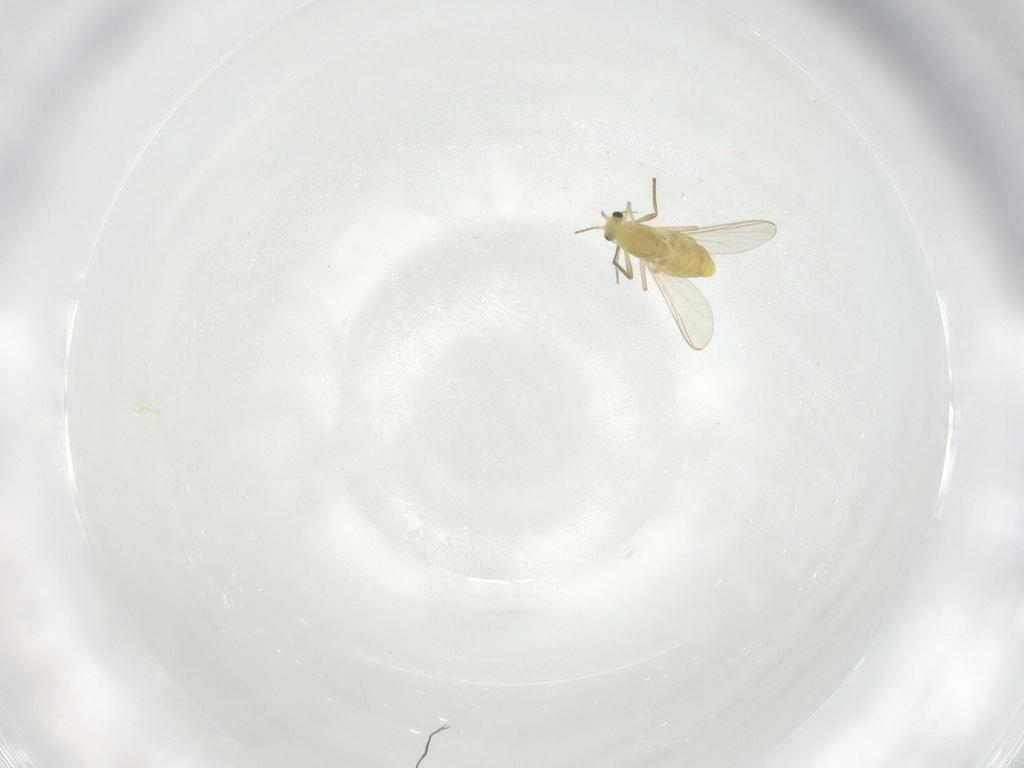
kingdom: Animalia
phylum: Arthropoda
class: Insecta
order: Diptera
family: Chironomidae
